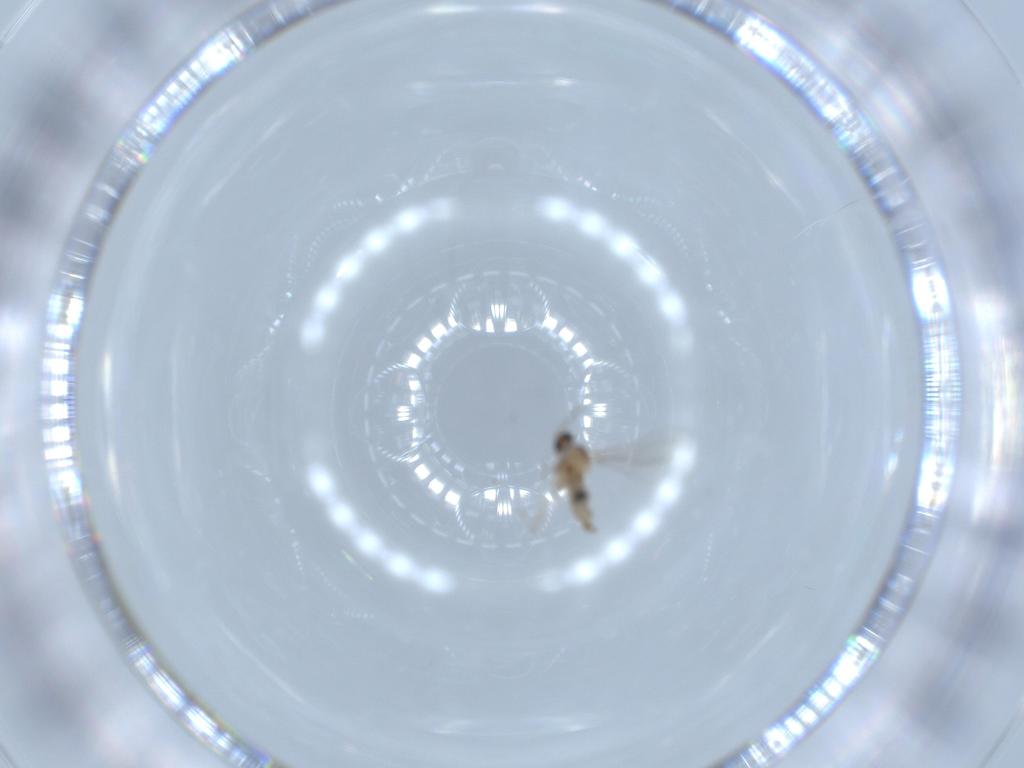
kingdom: Animalia
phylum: Arthropoda
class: Insecta
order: Diptera
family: Cecidomyiidae
